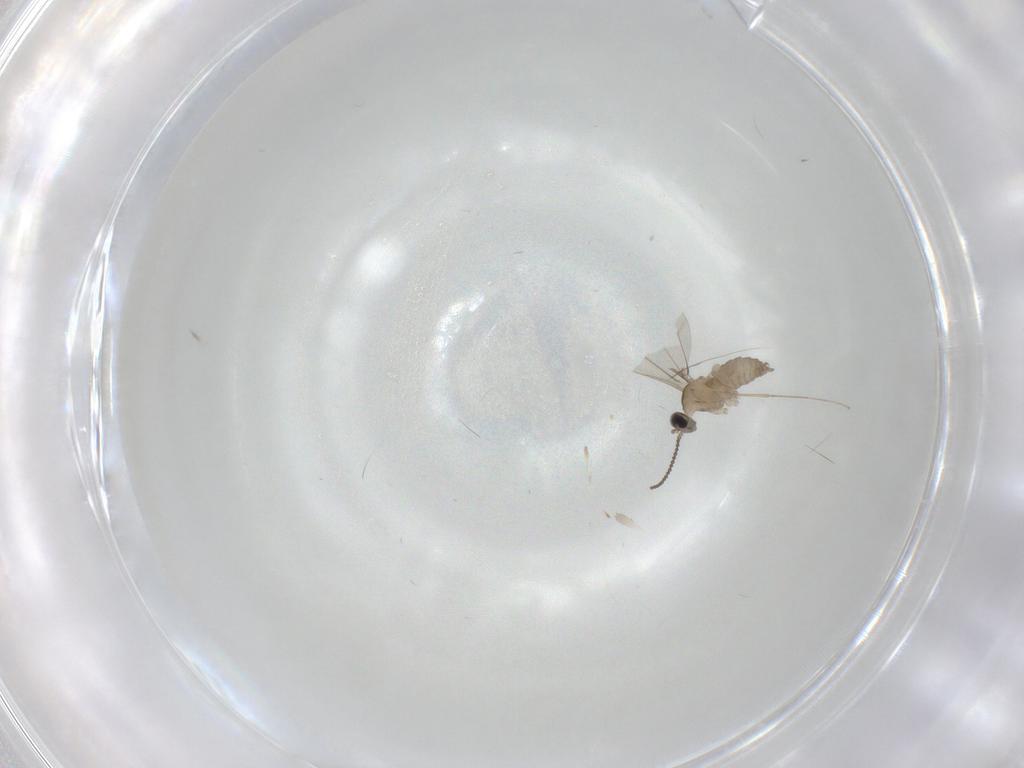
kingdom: Animalia
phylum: Arthropoda
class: Insecta
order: Diptera
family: Cecidomyiidae
